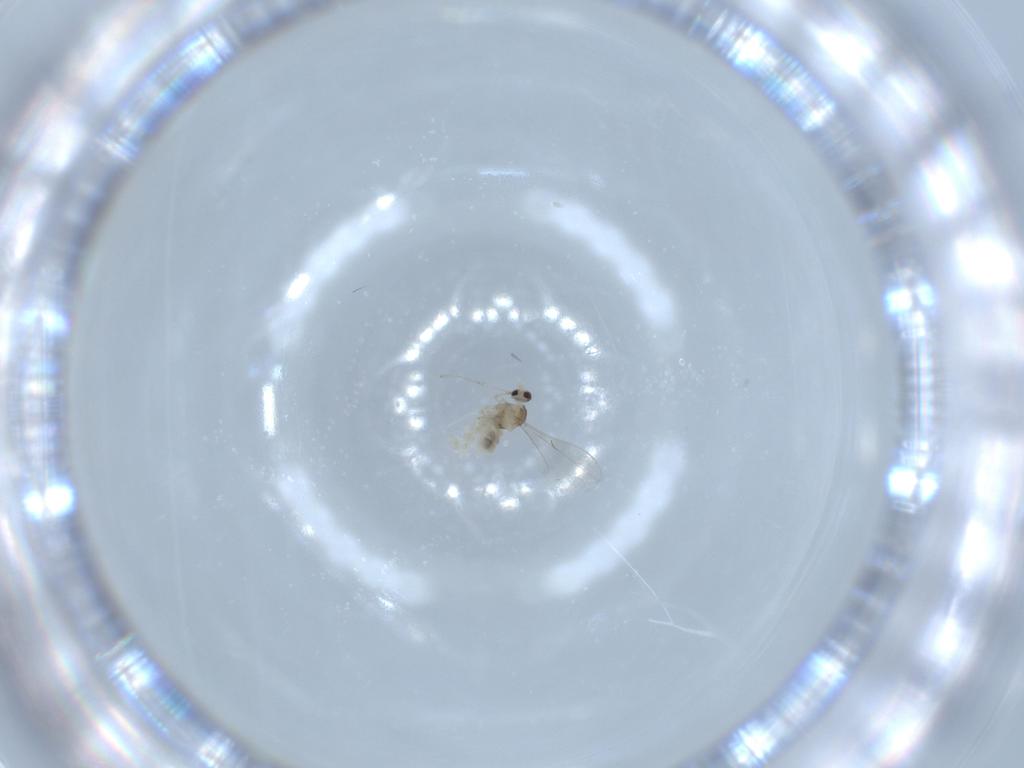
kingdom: Animalia
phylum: Arthropoda
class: Insecta
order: Diptera
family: Cecidomyiidae
